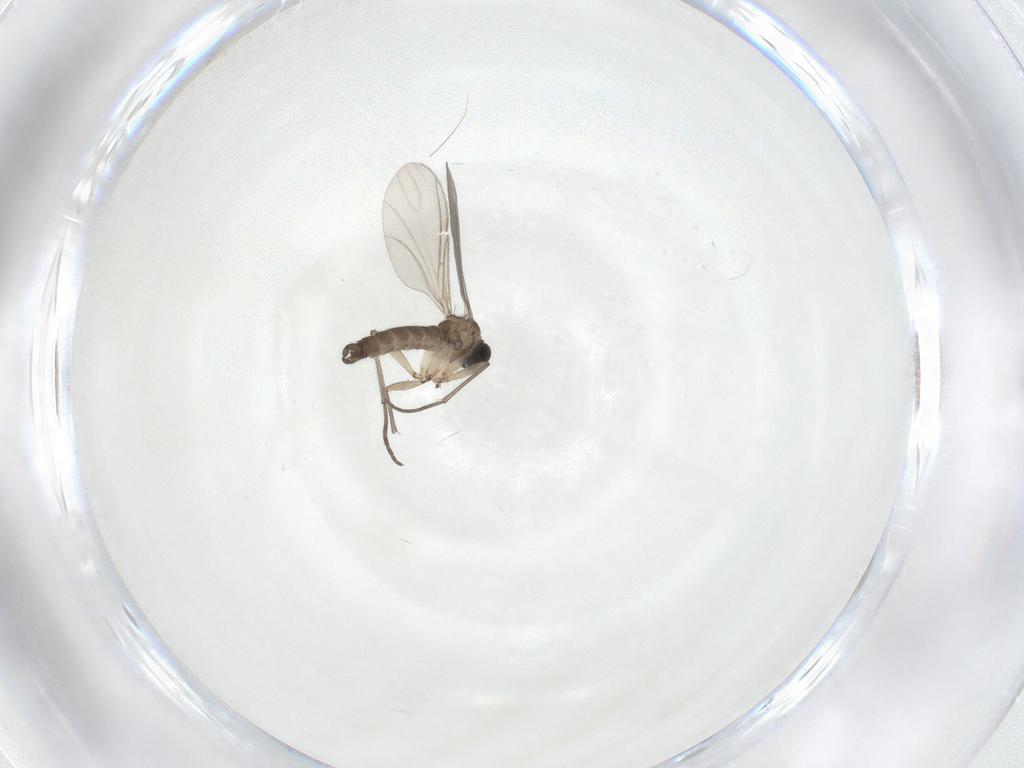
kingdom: Animalia
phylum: Arthropoda
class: Insecta
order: Diptera
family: Sciaridae
